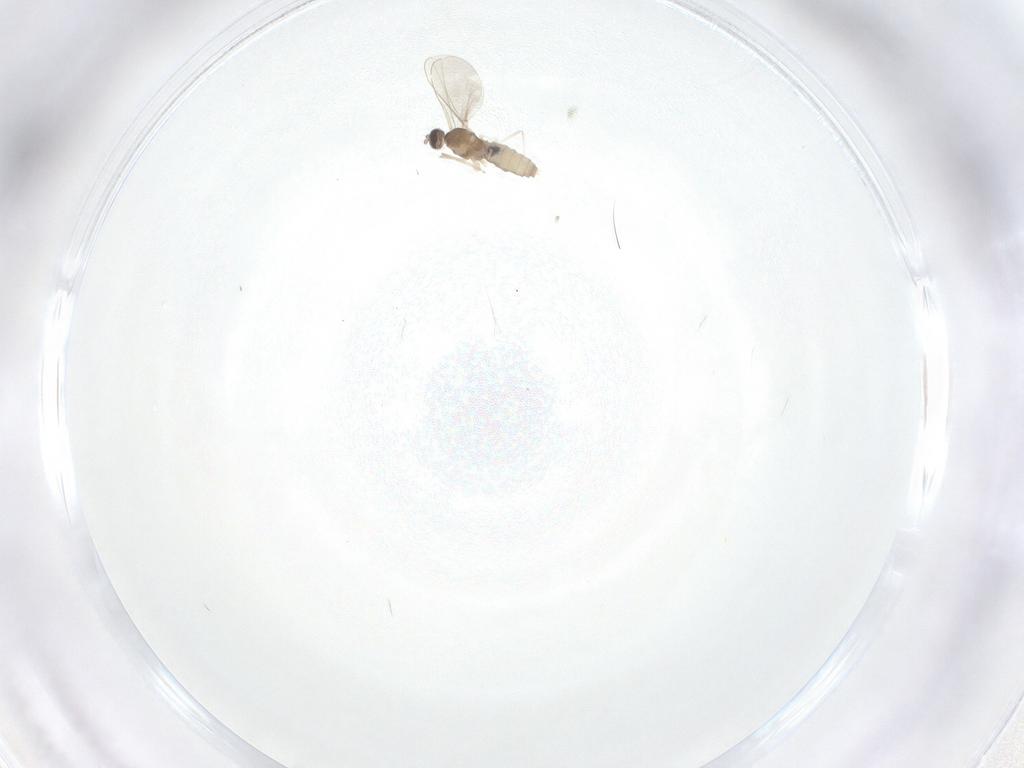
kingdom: Animalia
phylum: Arthropoda
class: Insecta
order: Diptera
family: Cecidomyiidae
